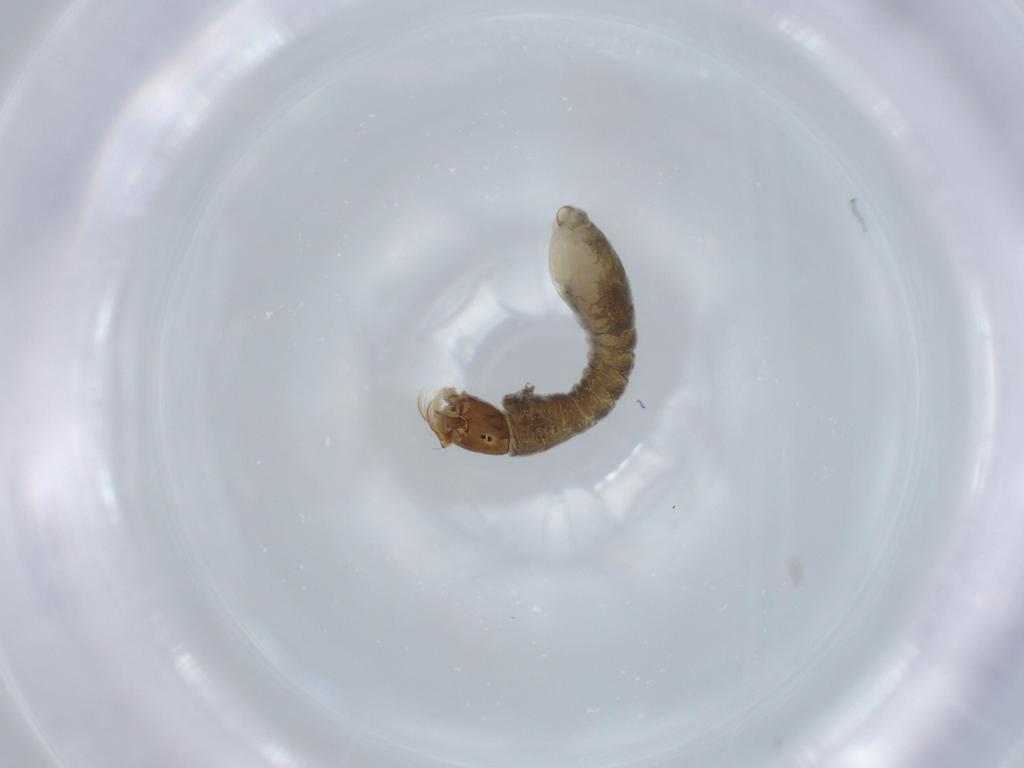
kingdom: Animalia
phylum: Arthropoda
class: Insecta
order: Diptera
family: Simuliidae
